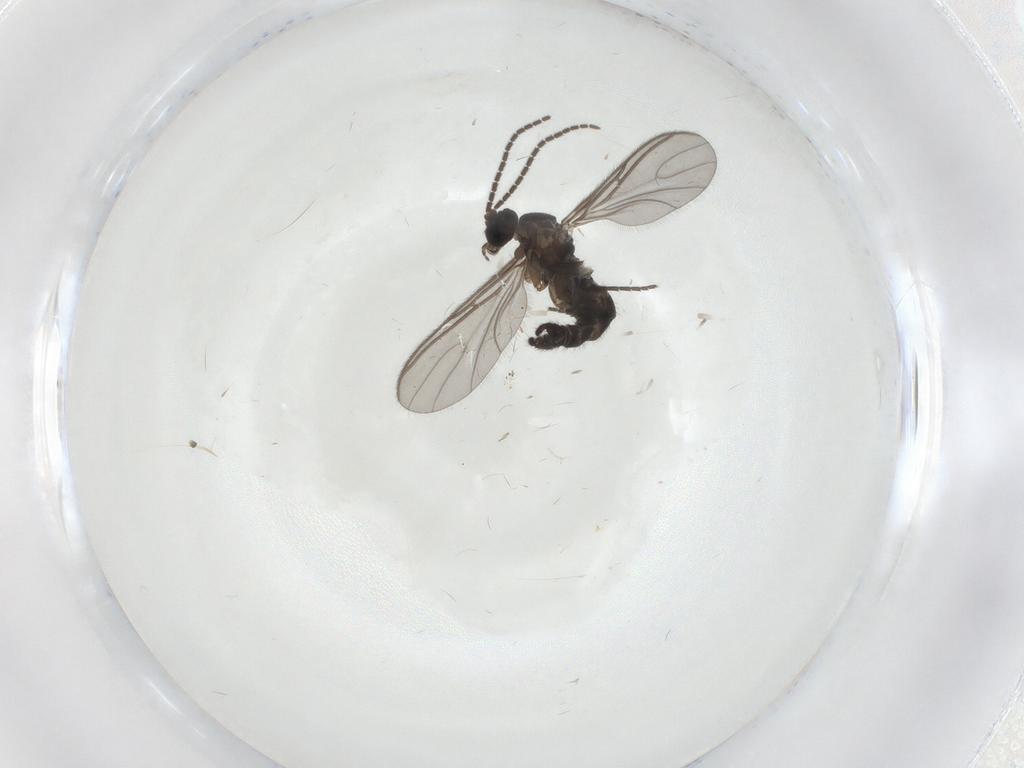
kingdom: Animalia
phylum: Arthropoda
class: Insecta
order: Diptera
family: Sciaridae
